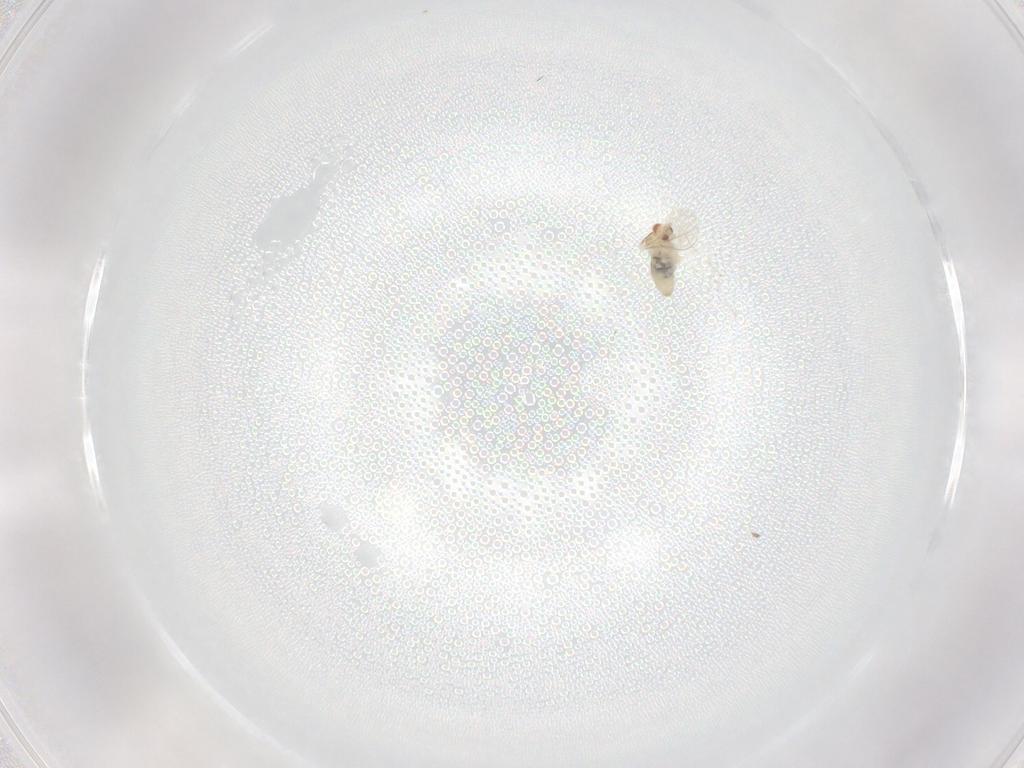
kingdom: Animalia
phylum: Arthropoda
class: Insecta
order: Diptera
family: Cecidomyiidae
